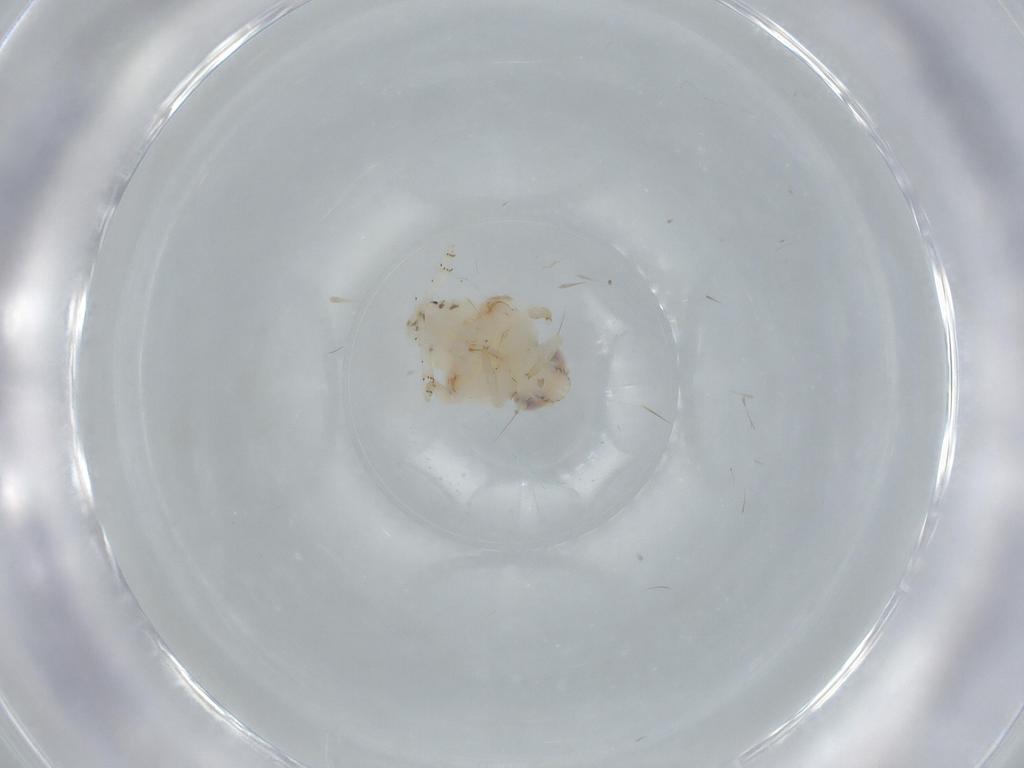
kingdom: Animalia
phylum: Arthropoda
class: Insecta
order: Hemiptera
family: Nogodinidae
